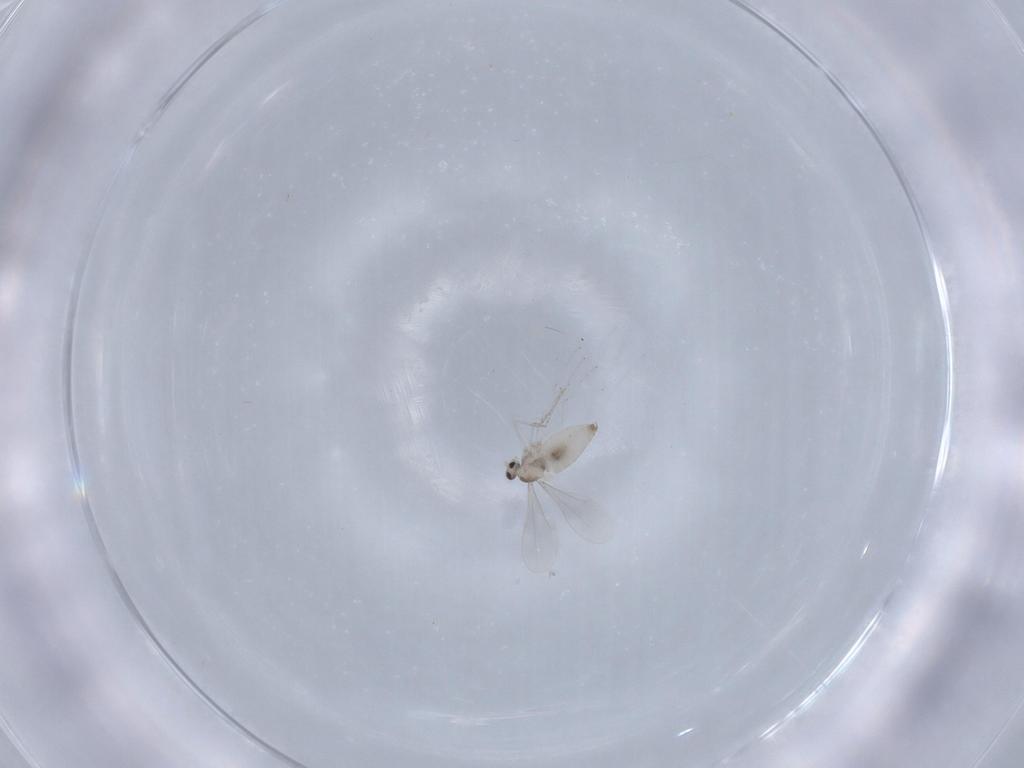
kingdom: Animalia
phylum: Arthropoda
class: Insecta
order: Diptera
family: Cecidomyiidae
